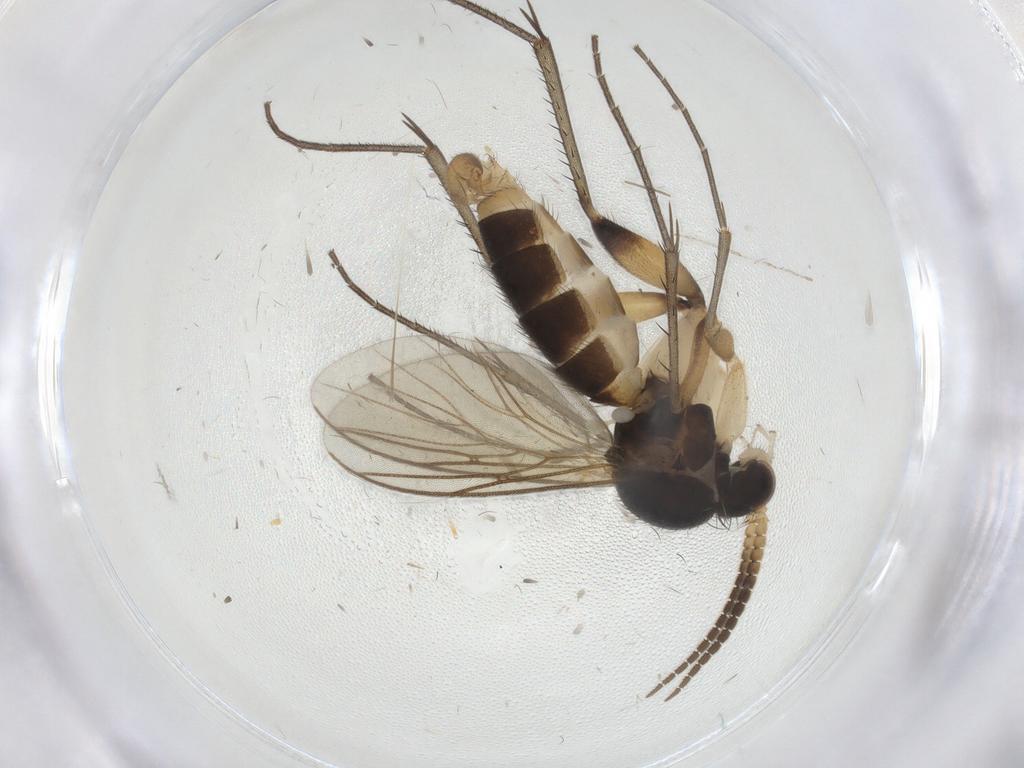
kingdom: Animalia
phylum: Arthropoda
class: Insecta
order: Diptera
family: Mycetophilidae
